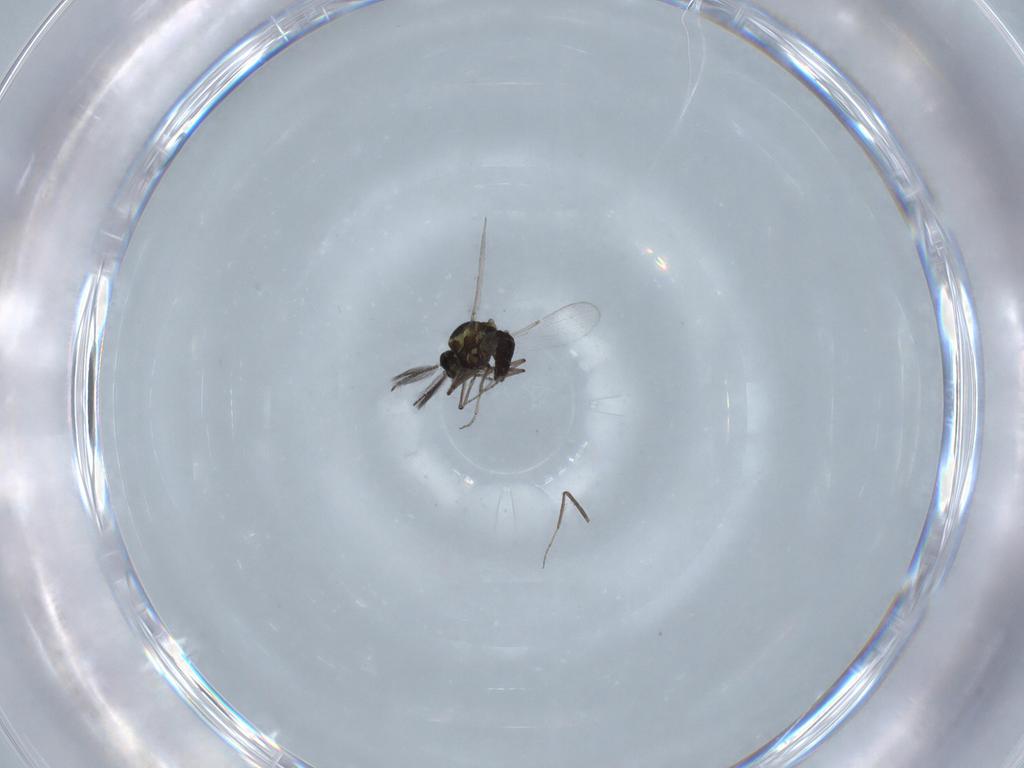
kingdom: Animalia
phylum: Arthropoda
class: Insecta
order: Diptera
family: Ceratopogonidae
